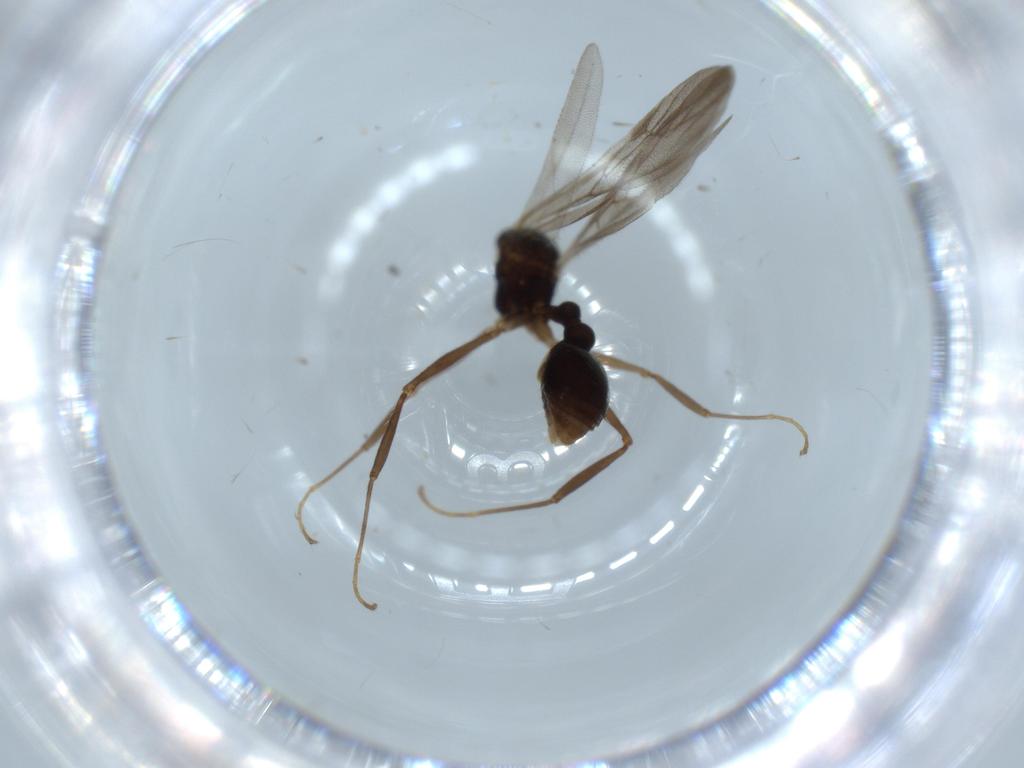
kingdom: Animalia
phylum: Arthropoda
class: Insecta
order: Hymenoptera
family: Formicidae
